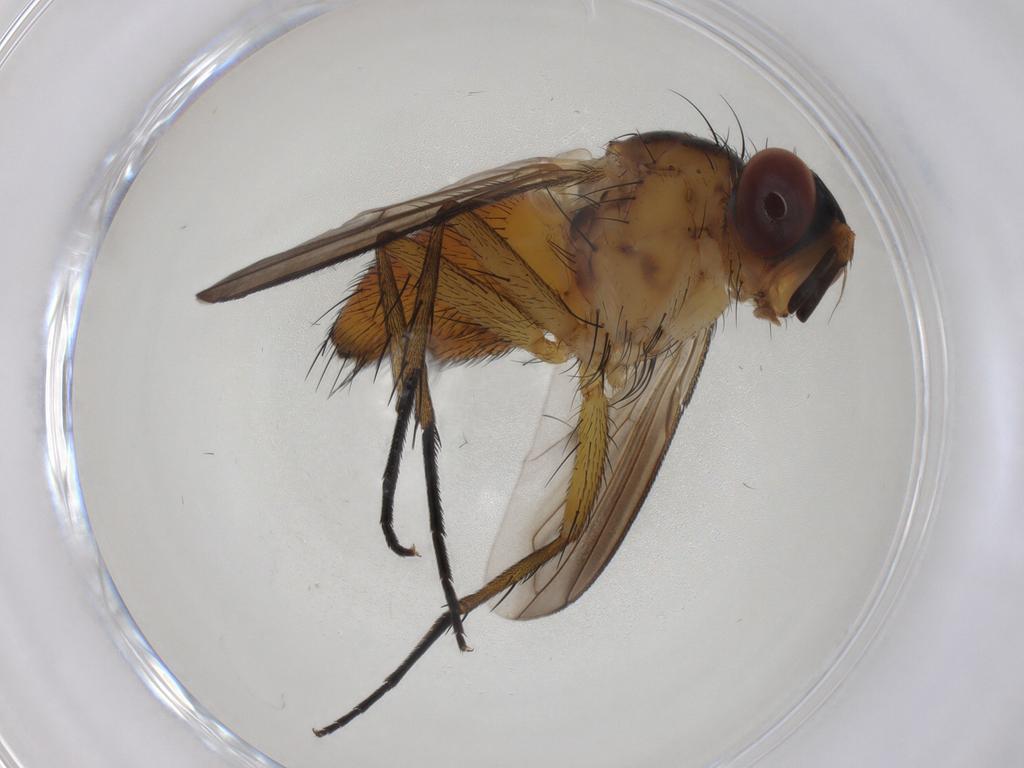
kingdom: Animalia
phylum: Arthropoda
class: Insecta
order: Diptera
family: Tachinidae
